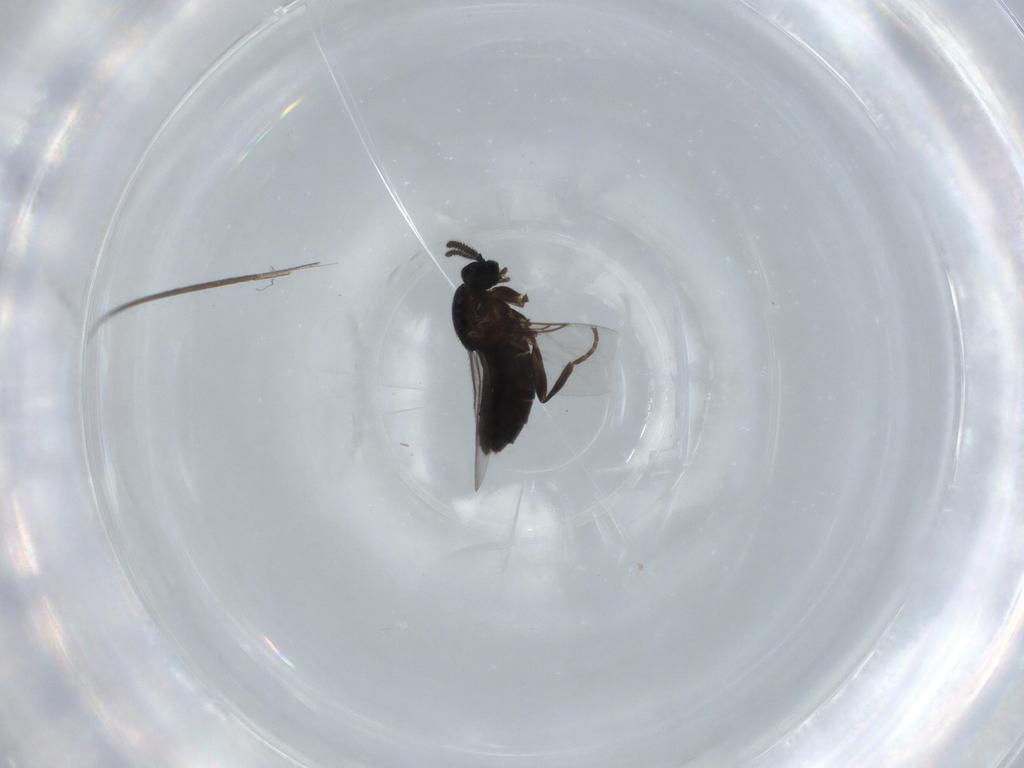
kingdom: Animalia
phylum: Arthropoda
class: Insecta
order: Diptera
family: Scatopsidae
